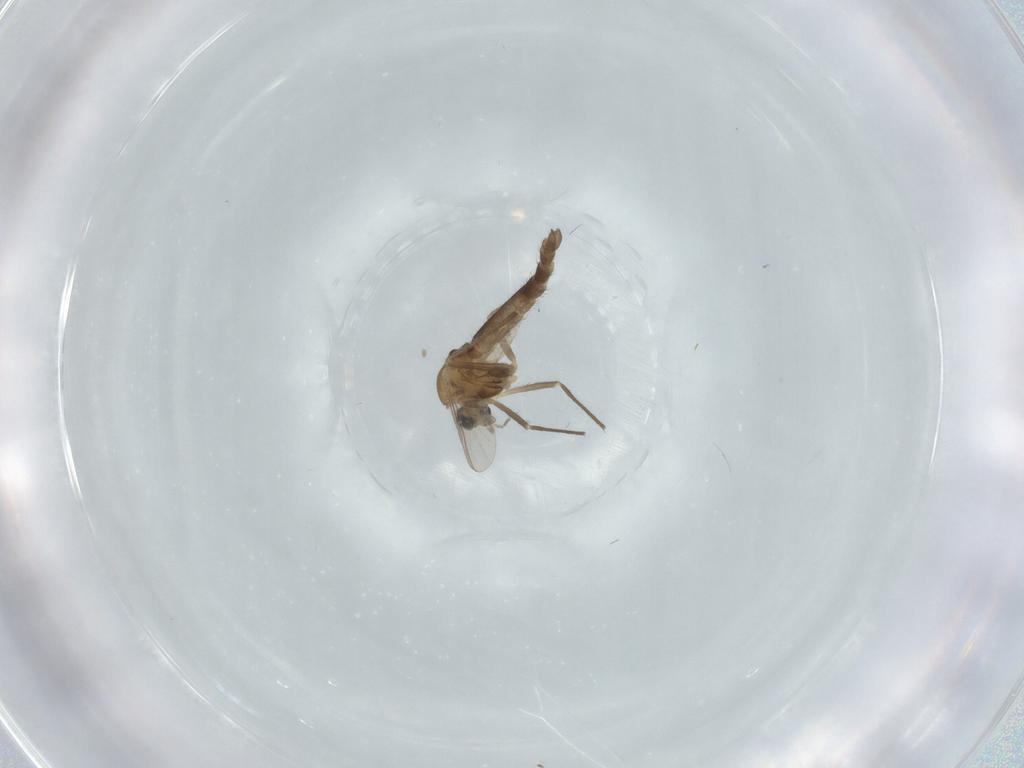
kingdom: Animalia
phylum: Arthropoda
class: Insecta
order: Diptera
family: Chironomidae
